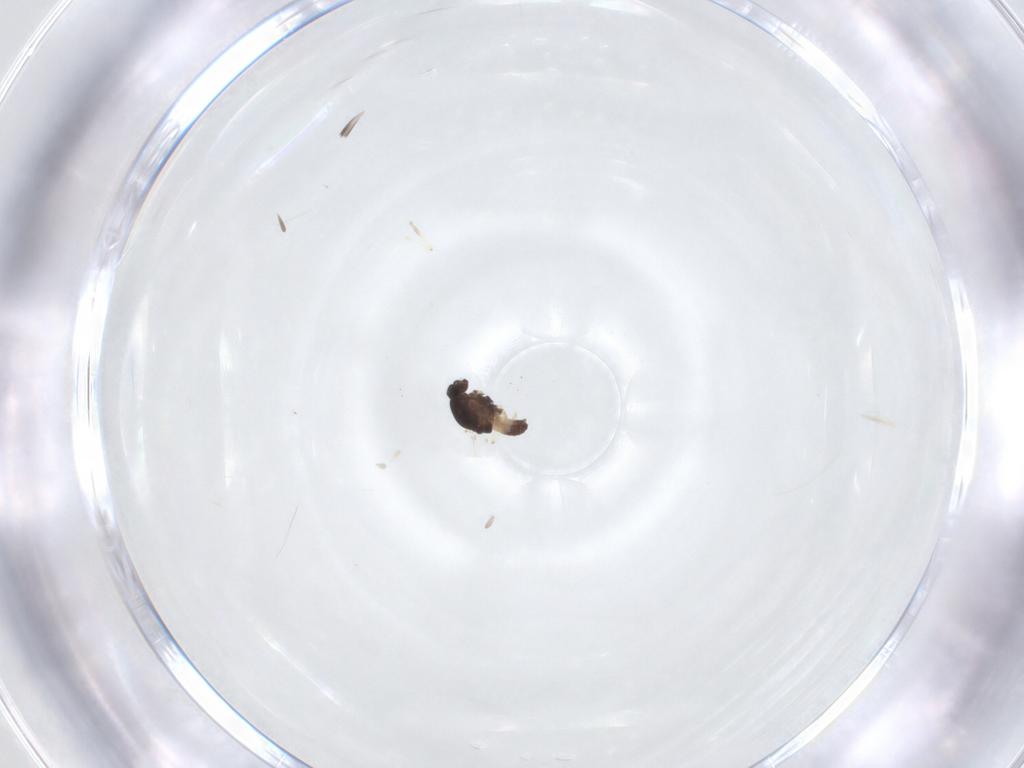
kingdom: Animalia
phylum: Arthropoda
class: Insecta
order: Diptera
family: Chironomidae
